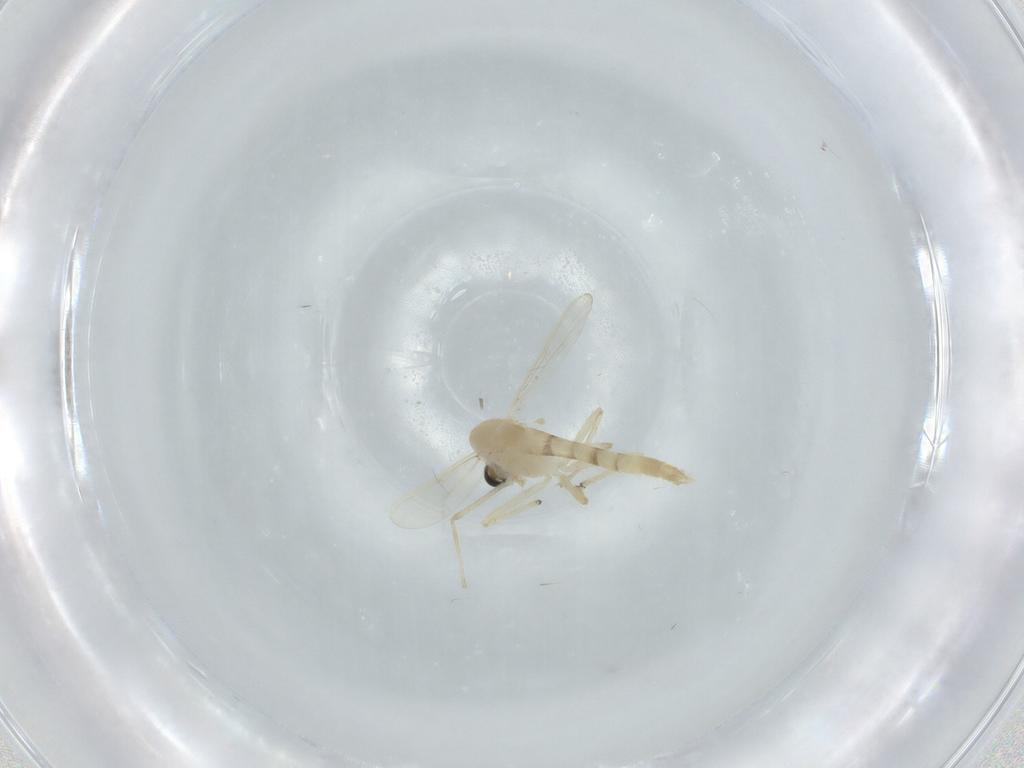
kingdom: Animalia
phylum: Arthropoda
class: Insecta
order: Diptera
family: Chironomidae
